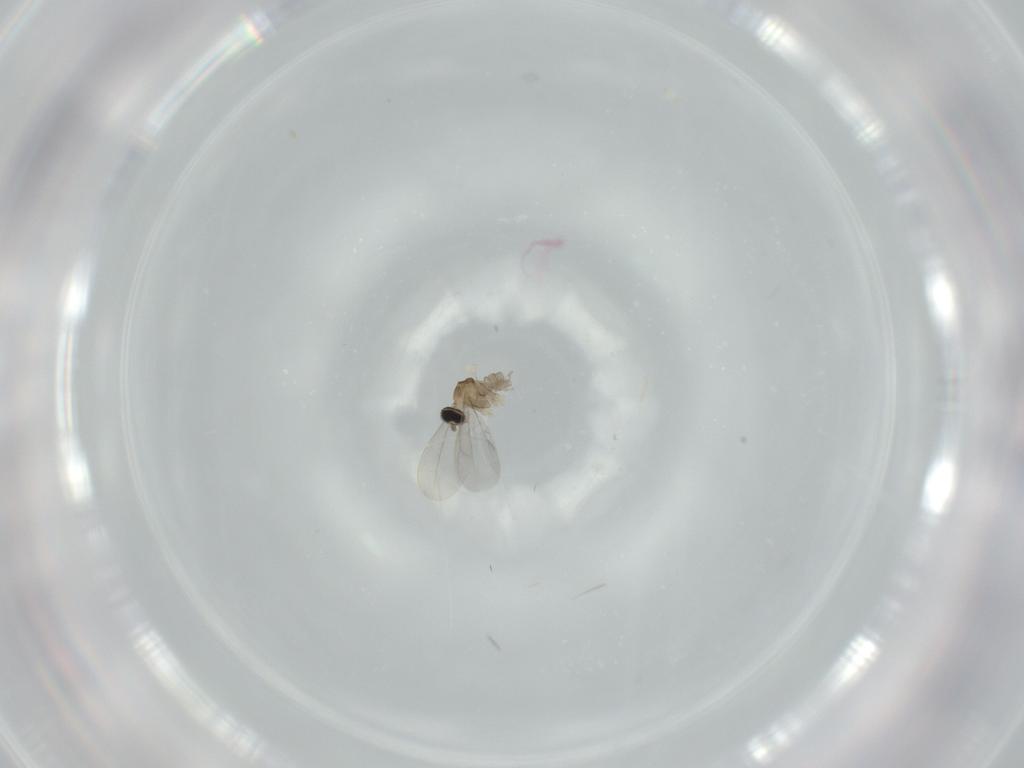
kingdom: Animalia
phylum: Arthropoda
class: Insecta
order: Diptera
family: Cecidomyiidae
